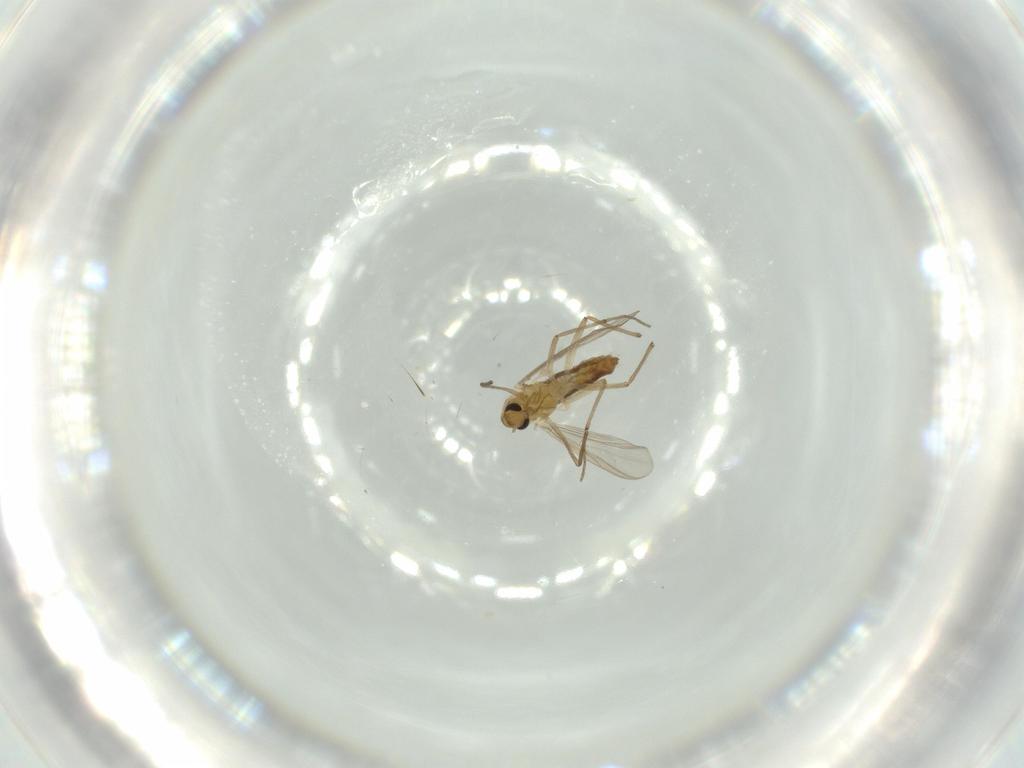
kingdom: Animalia
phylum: Arthropoda
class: Insecta
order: Diptera
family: Chironomidae
